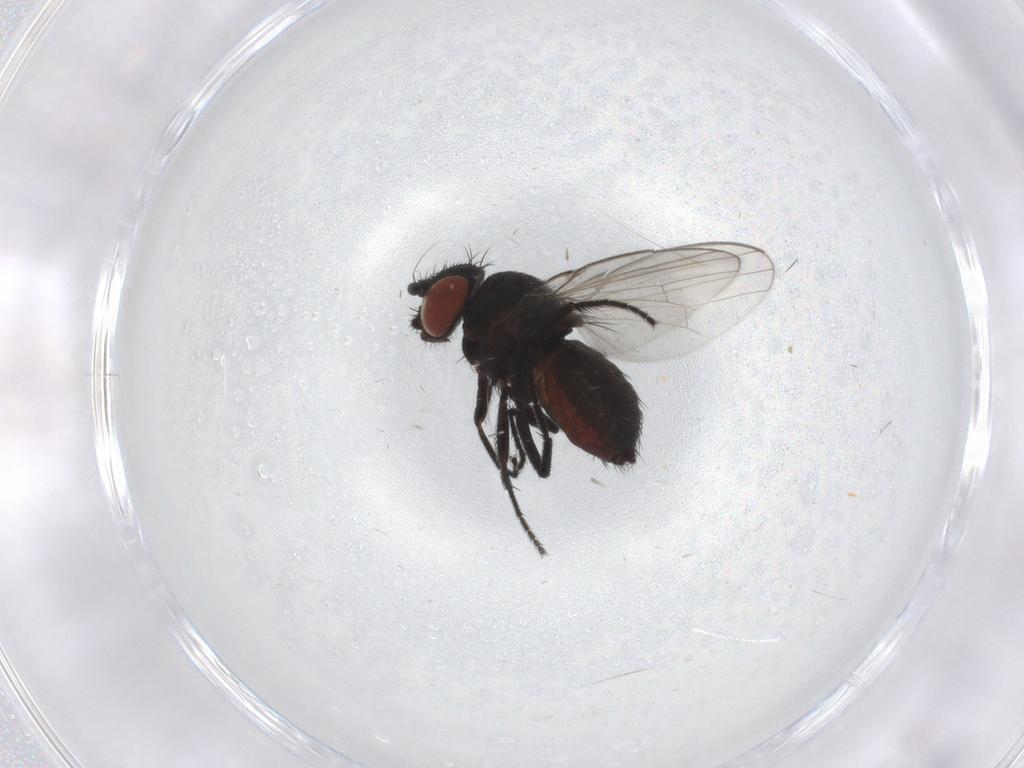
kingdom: Animalia
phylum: Arthropoda
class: Insecta
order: Diptera
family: Milichiidae
